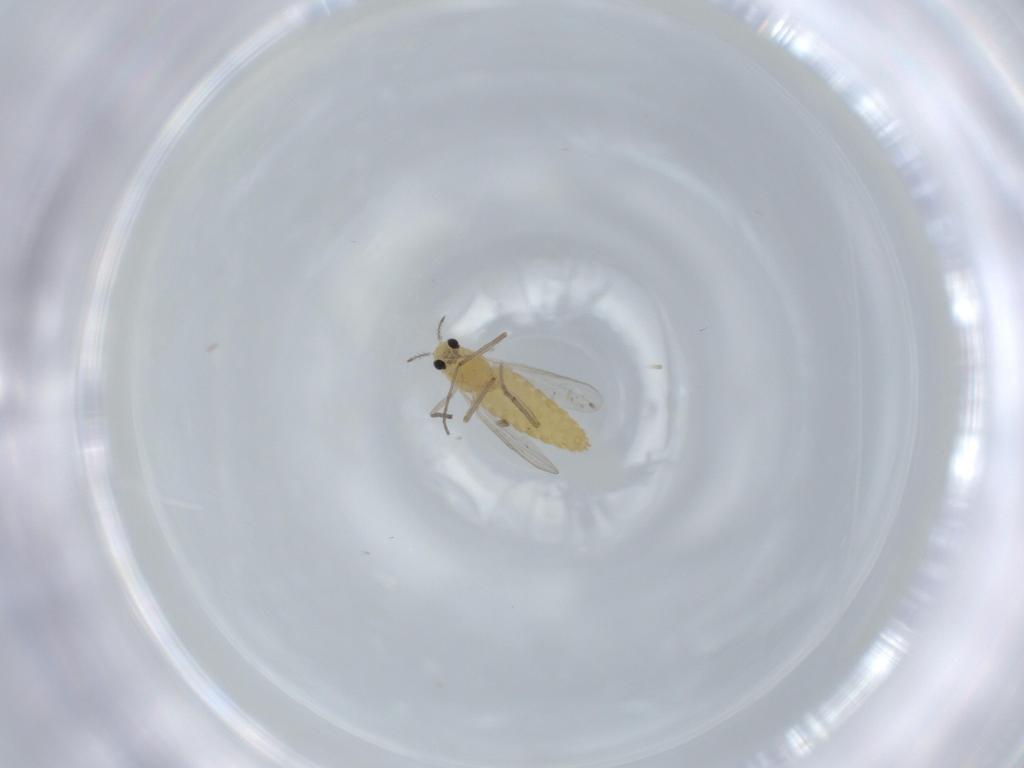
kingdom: Animalia
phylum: Arthropoda
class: Insecta
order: Diptera
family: Chironomidae
